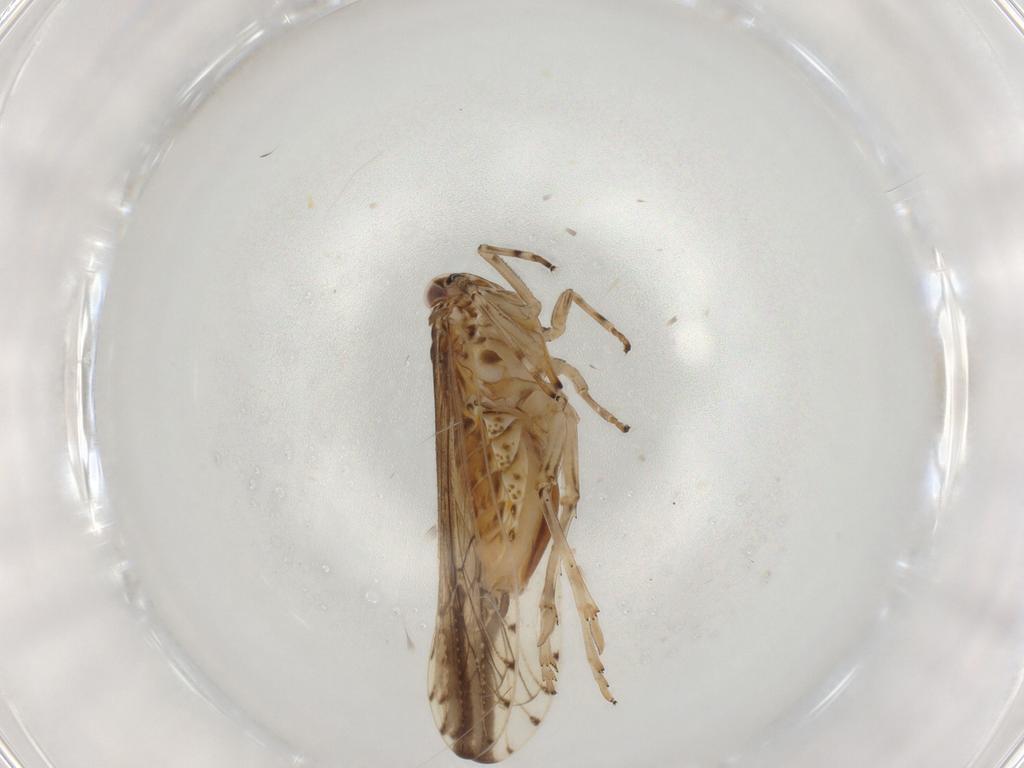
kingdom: Animalia
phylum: Arthropoda
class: Insecta
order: Hemiptera
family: Delphacidae
